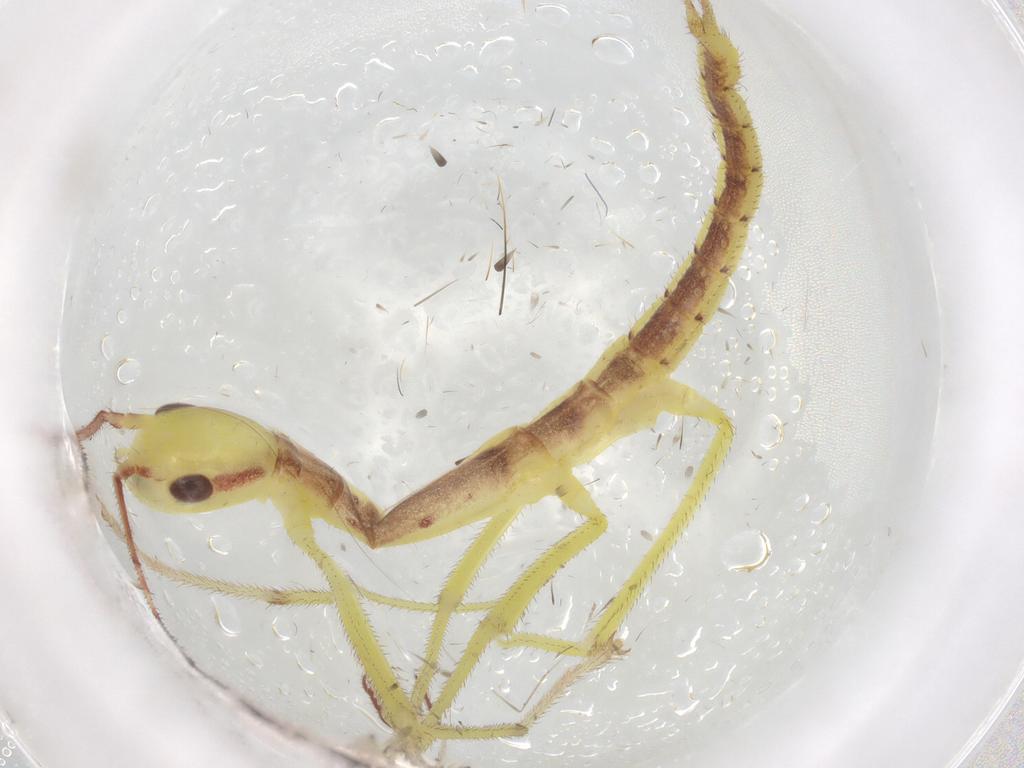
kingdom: Animalia
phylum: Arthropoda
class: Insecta
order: Phasmida
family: Agathemeridae
